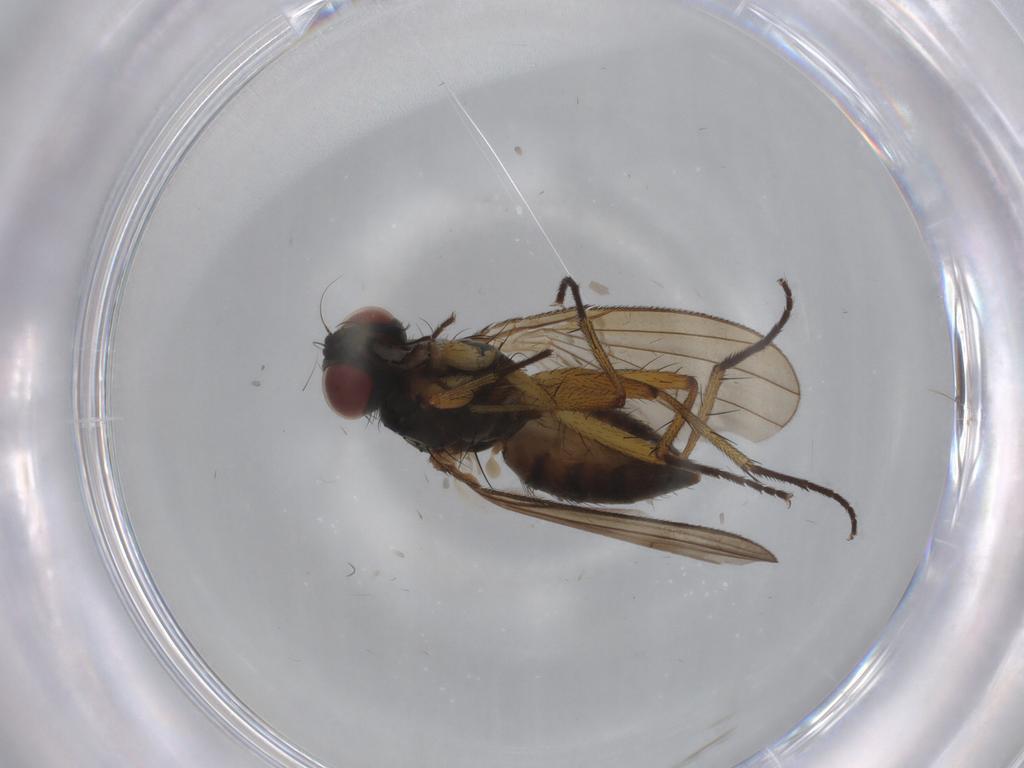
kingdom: Animalia
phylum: Arthropoda
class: Insecta
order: Diptera
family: Muscidae
